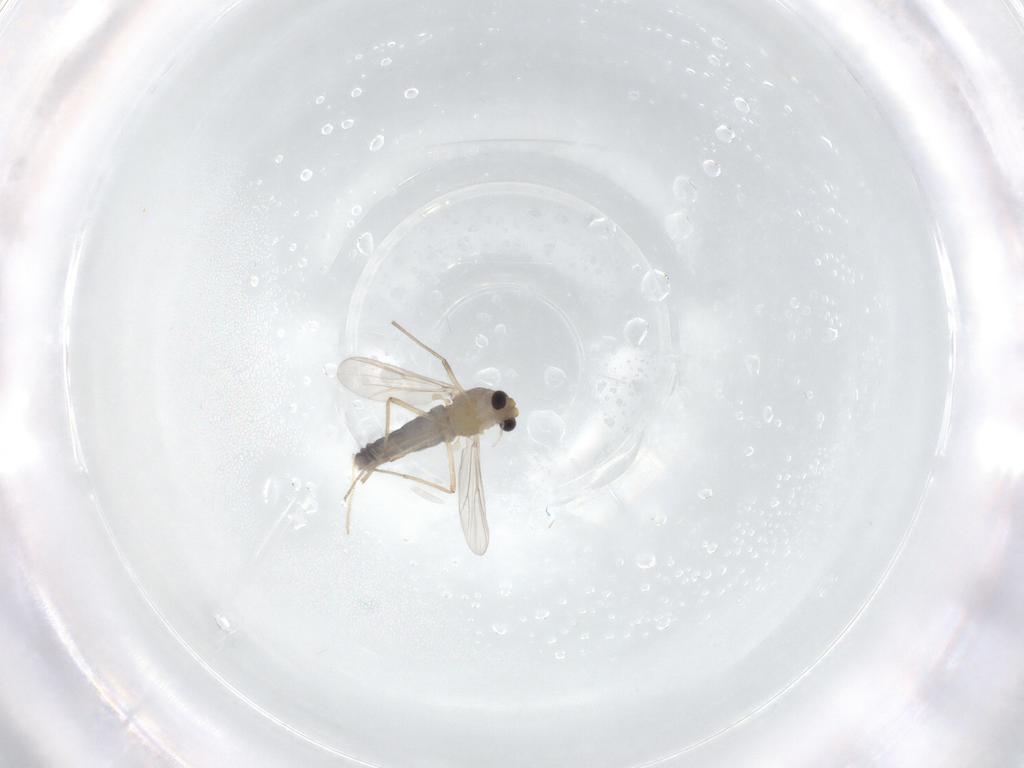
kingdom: Animalia
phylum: Arthropoda
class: Insecta
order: Diptera
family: Chironomidae
